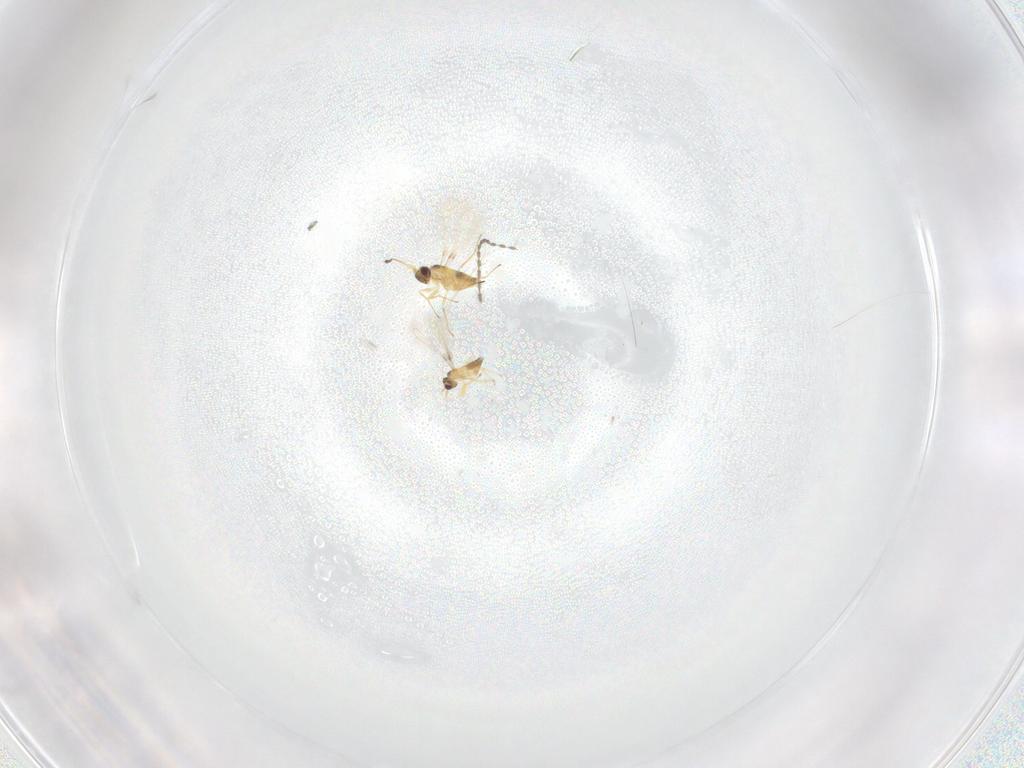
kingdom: Animalia
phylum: Arthropoda
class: Insecta
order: Hymenoptera
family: Mymaridae
